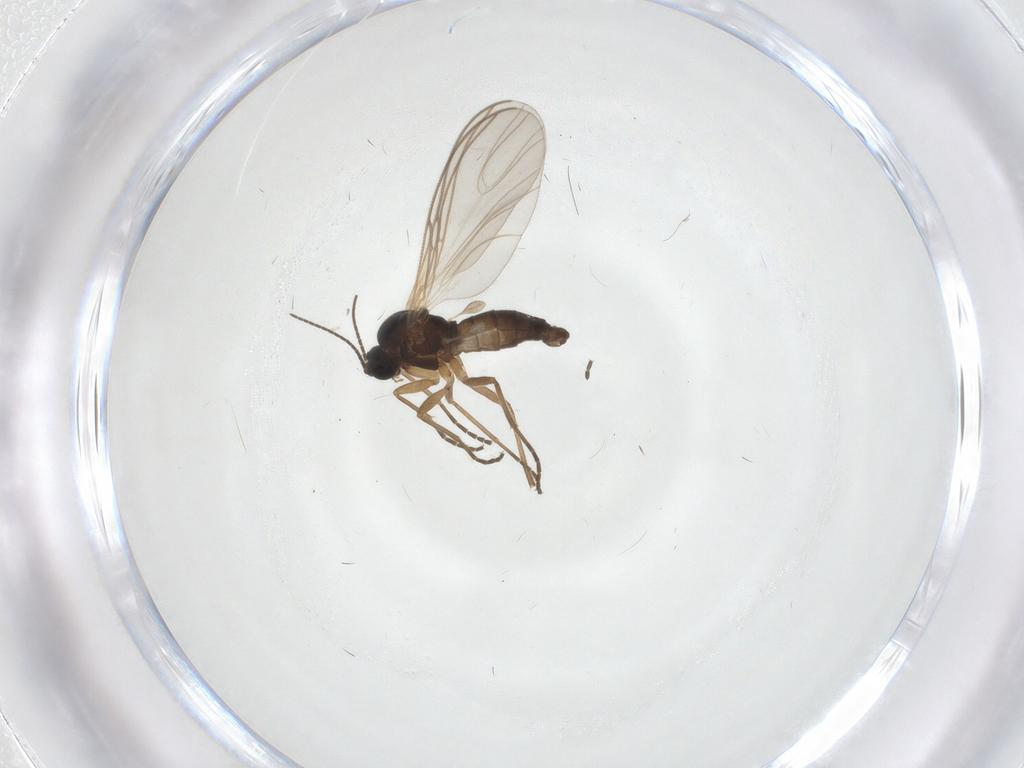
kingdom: Animalia
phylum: Arthropoda
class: Insecta
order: Diptera
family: Sciaridae
